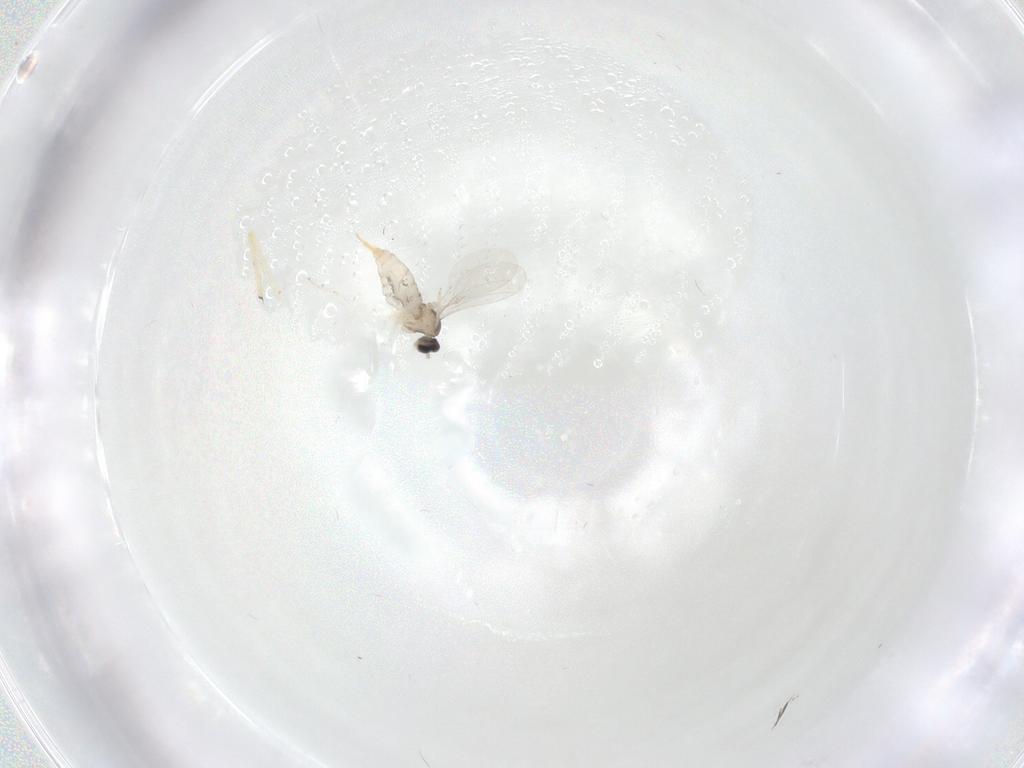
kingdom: Animalia
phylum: Arthropoda
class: Insecta
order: Diptera
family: Cecidomyiidae
